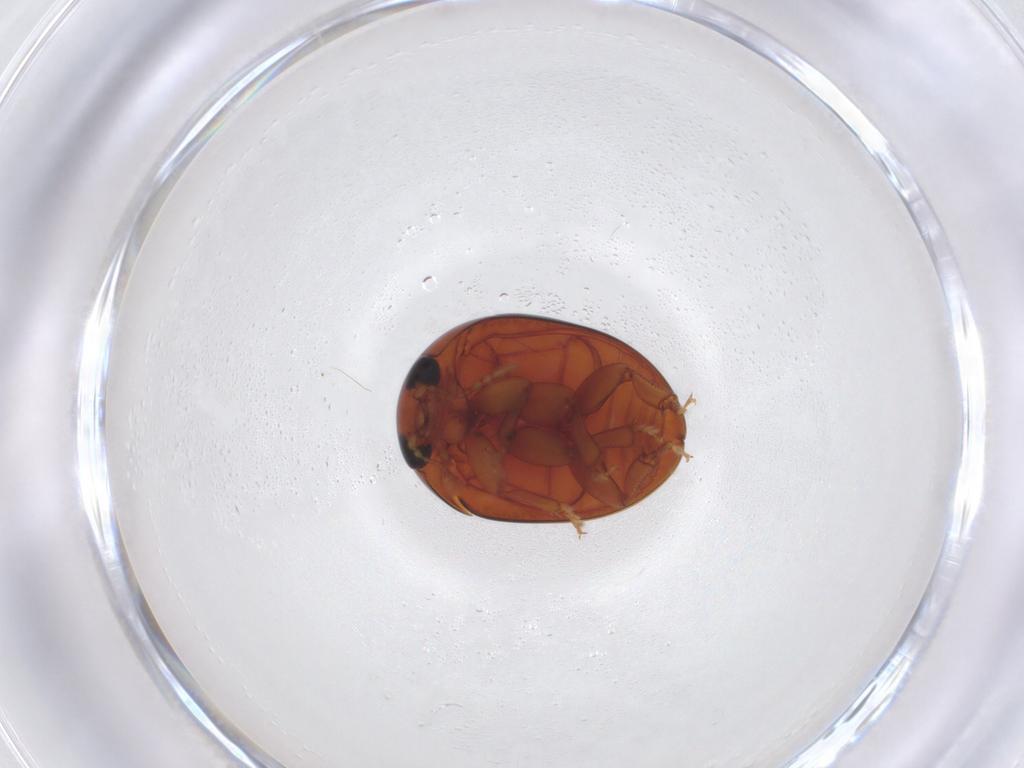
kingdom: Animalia
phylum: Arthropoda
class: Insecta
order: Coleoptera
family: Phalacridae
